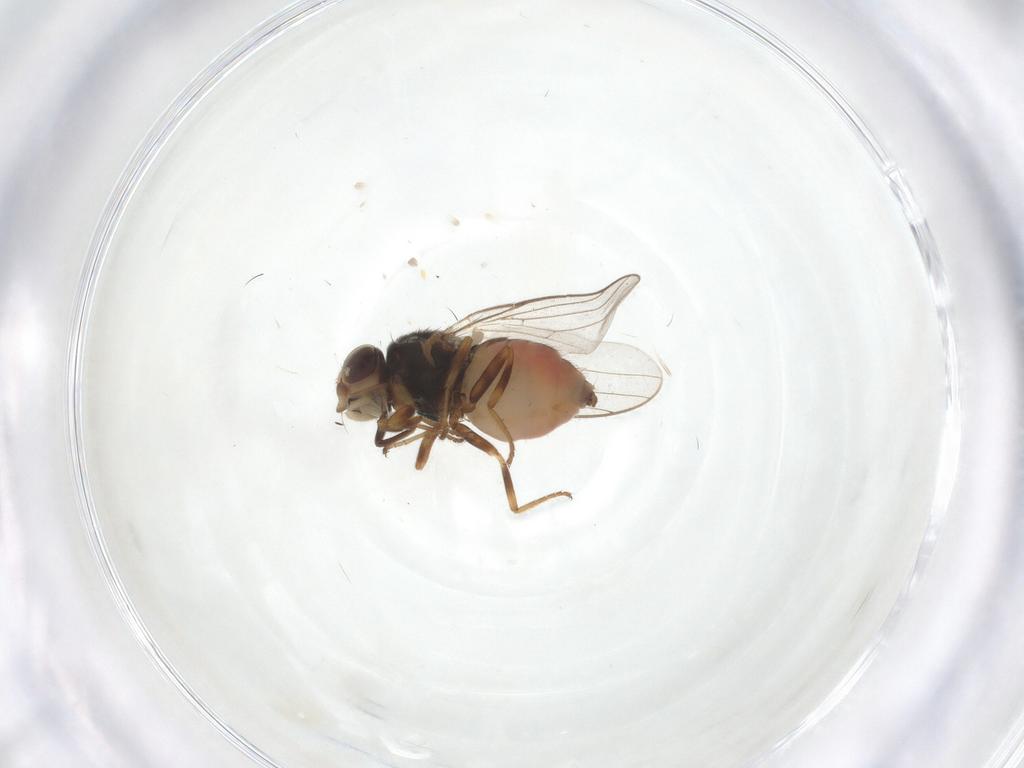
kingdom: Animalia
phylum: Arthropoda
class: Insecta
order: Diptera
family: Chloropidae
